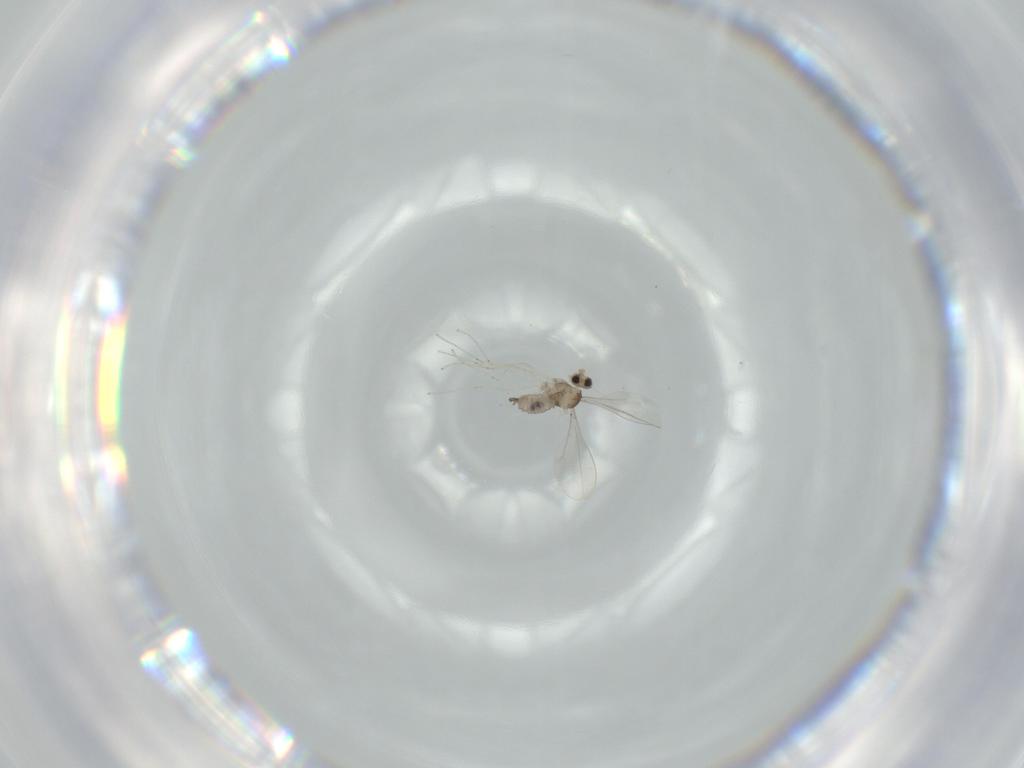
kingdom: Animalia
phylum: Arthropoda
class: Insecta
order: Diptera
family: Cecidomyiidae
